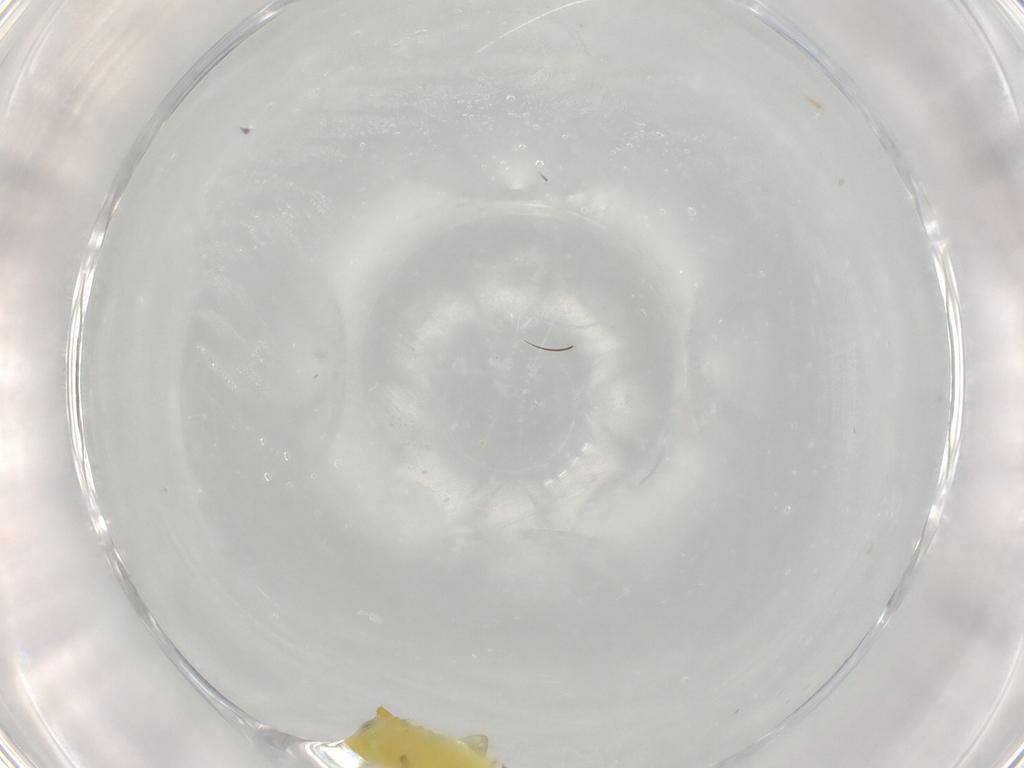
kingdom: Animalia
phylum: Arthropoda
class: Insecta
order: Hemiptera
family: Cicadellidae
